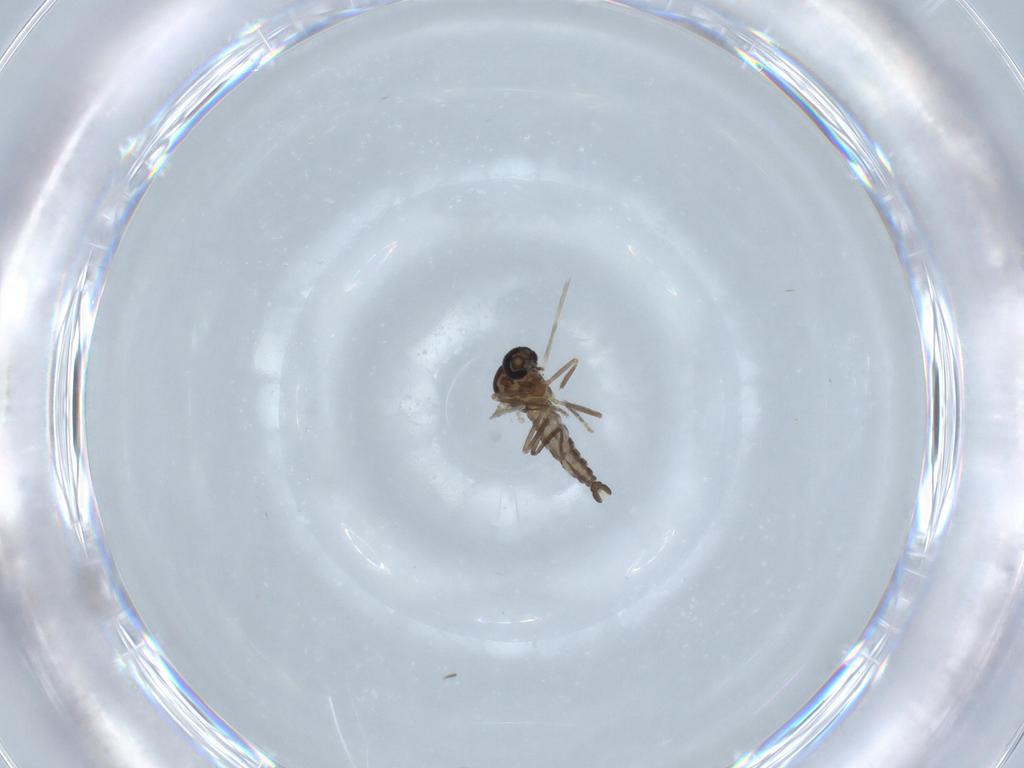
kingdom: Animalia
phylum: Arthropoda
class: Insecta
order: Diptera
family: Ceratopogonidae
